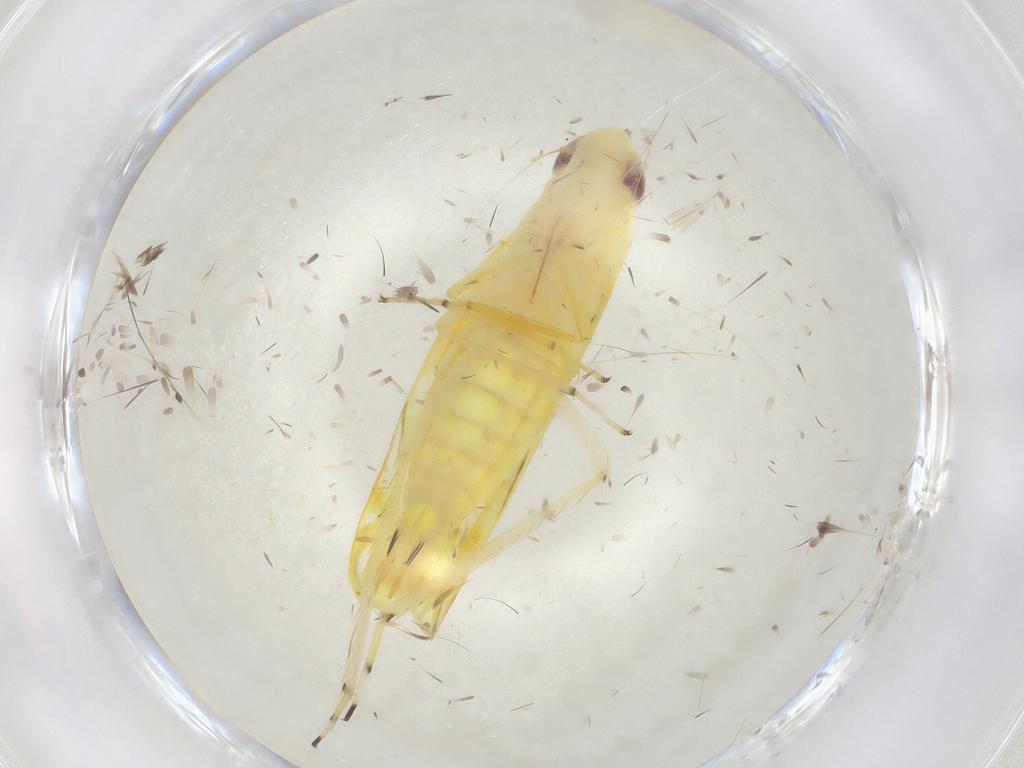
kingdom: Animalia
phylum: Arthropoda
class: Insecta
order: Hemiptera
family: Cicadellidae
